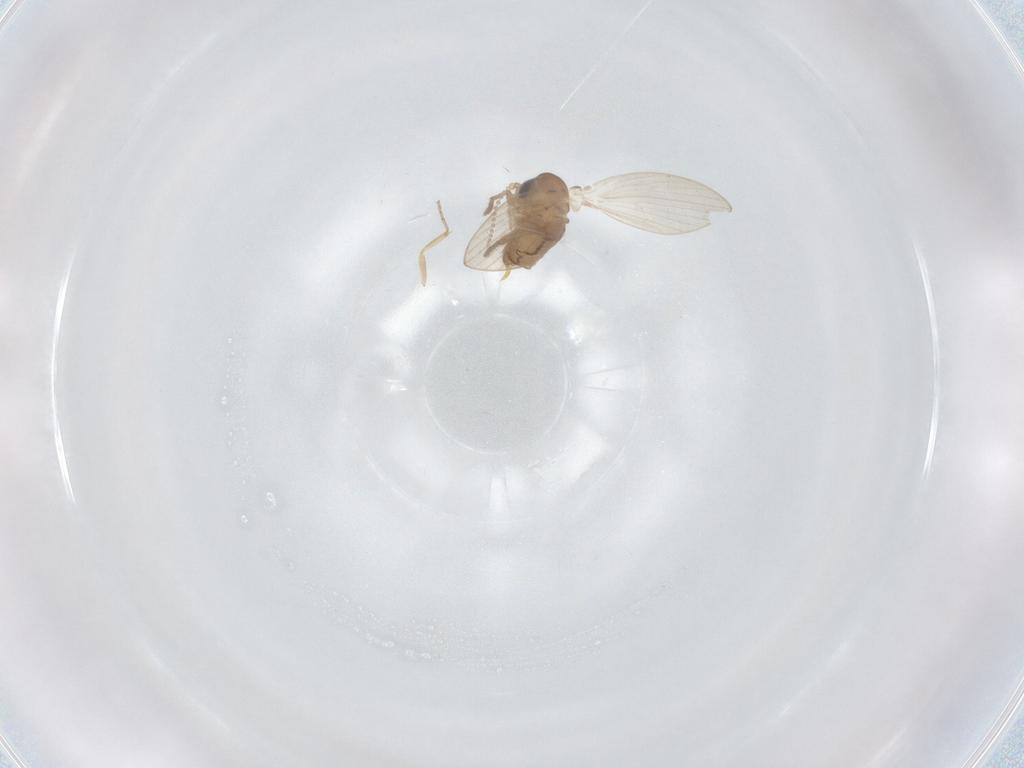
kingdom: Animalia
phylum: Arthropoda
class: Insecta
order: Diptera
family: Psychodidae
